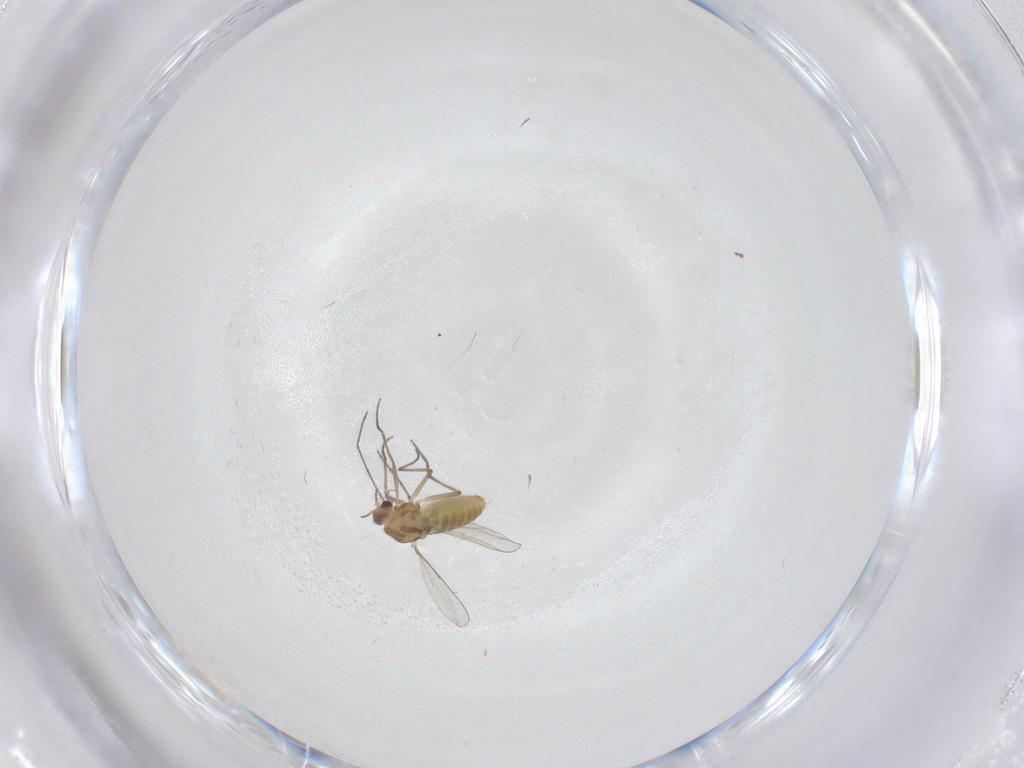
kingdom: Animalia
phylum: Arthropoda
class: Insecta
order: Diptera
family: Chironomidae
